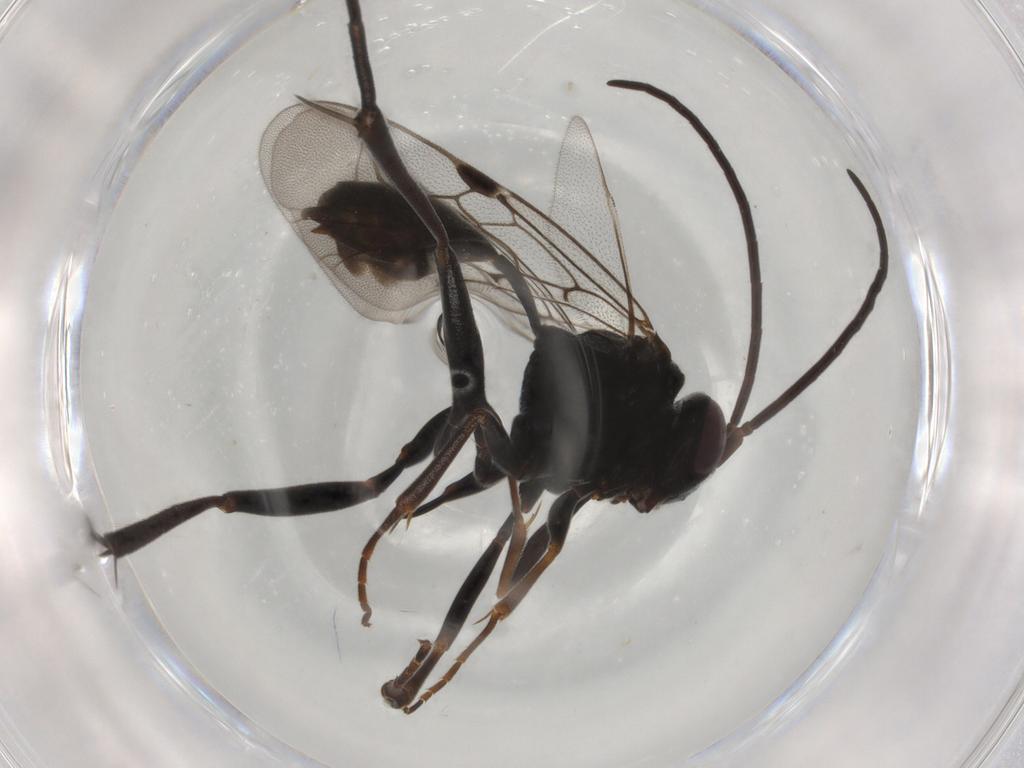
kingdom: Animalia
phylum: Arthropoda
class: Insecta
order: Hymenoptera
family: Evaniidae
